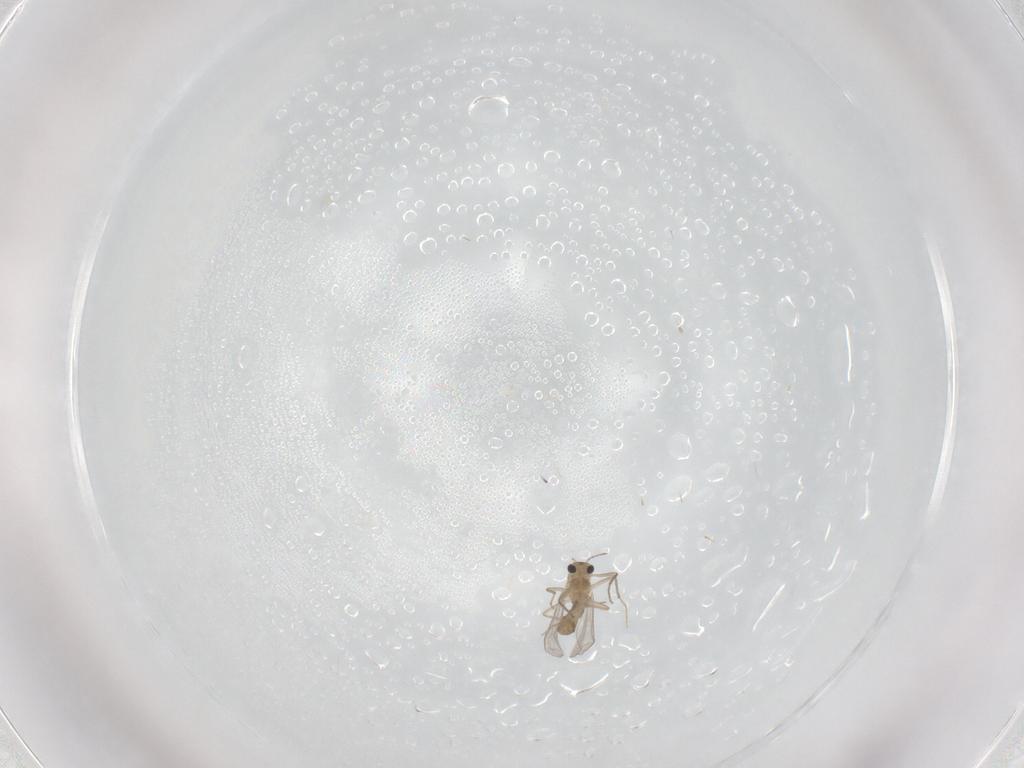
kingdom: Animalia
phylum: Arthropoda
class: Insecta
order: Diptera
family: Chironomidae
